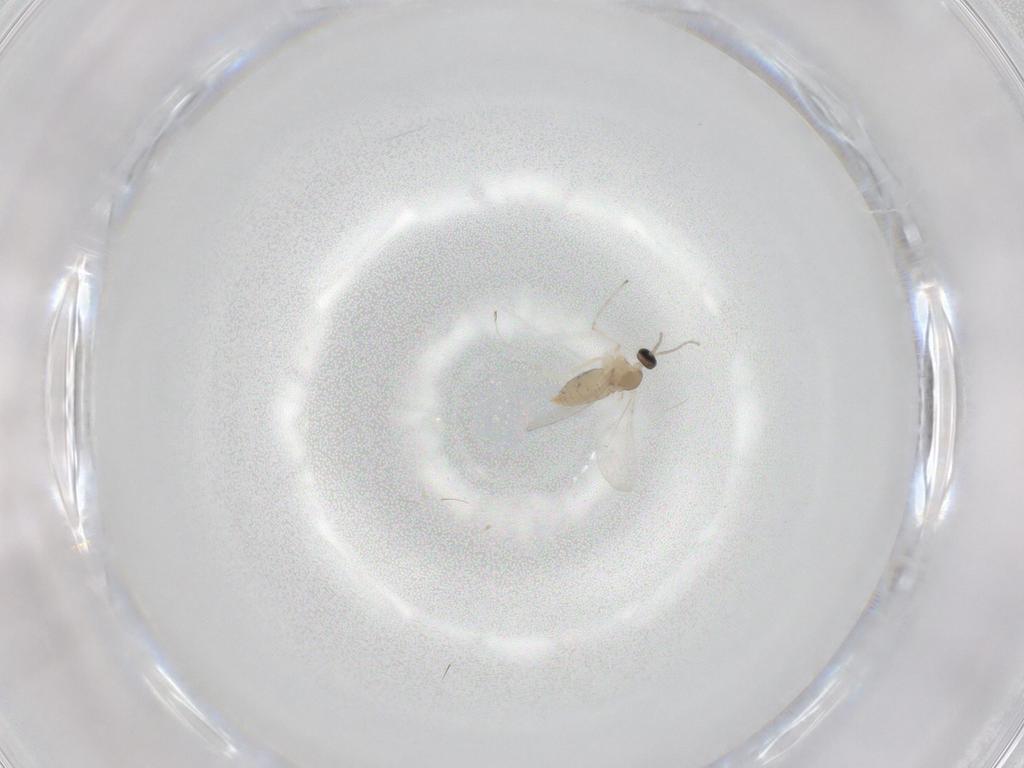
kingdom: Animalia
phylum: Arthropoda
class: Insecta
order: Diptera
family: Cecidomyiidae
